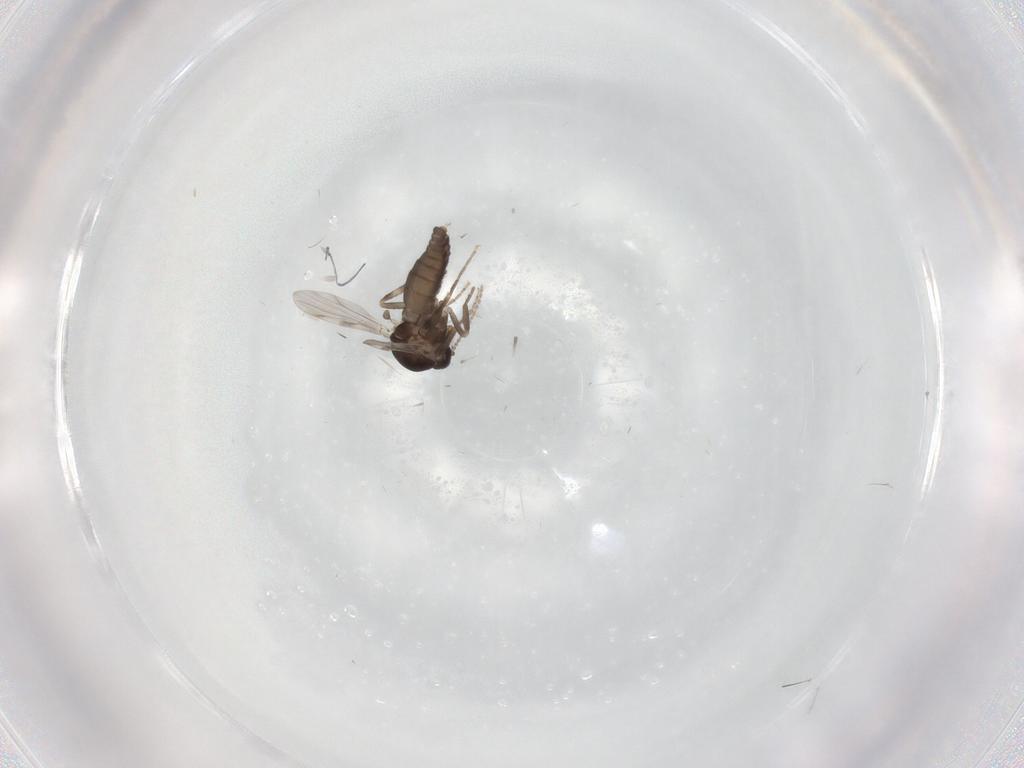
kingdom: Animalia
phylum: Arthropoda
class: Insecta
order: Diptera
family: Ceratopogonidae
